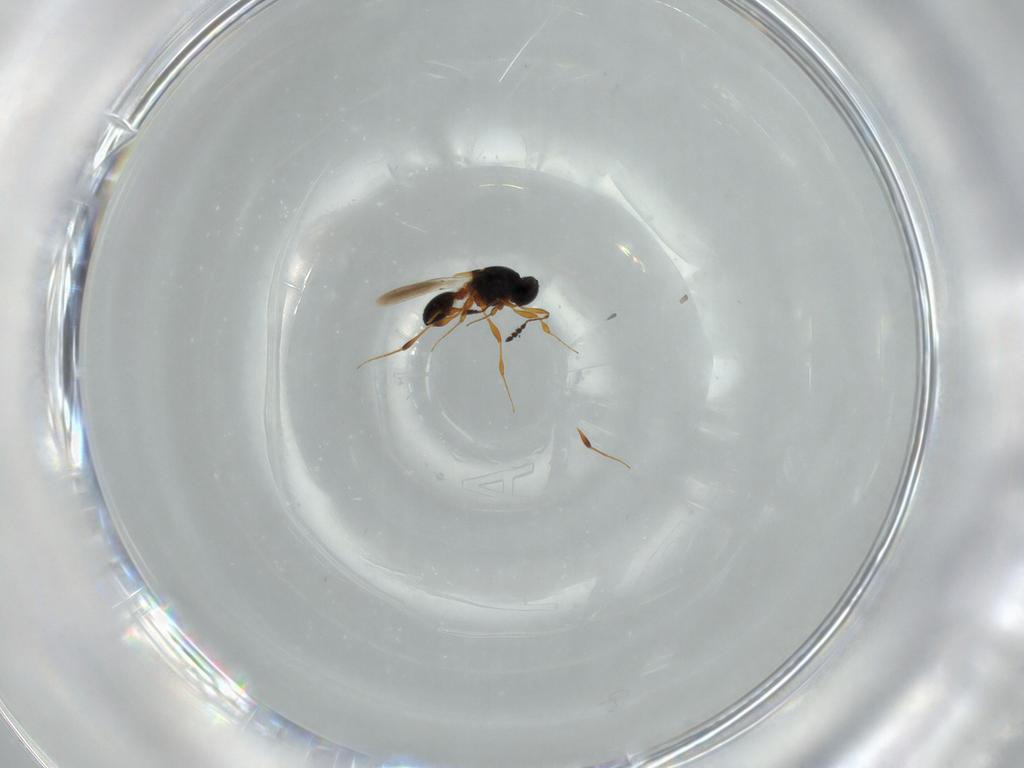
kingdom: Animalia
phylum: Arthropoda
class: Insecta
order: Hymenoptera
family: Platygastridae
